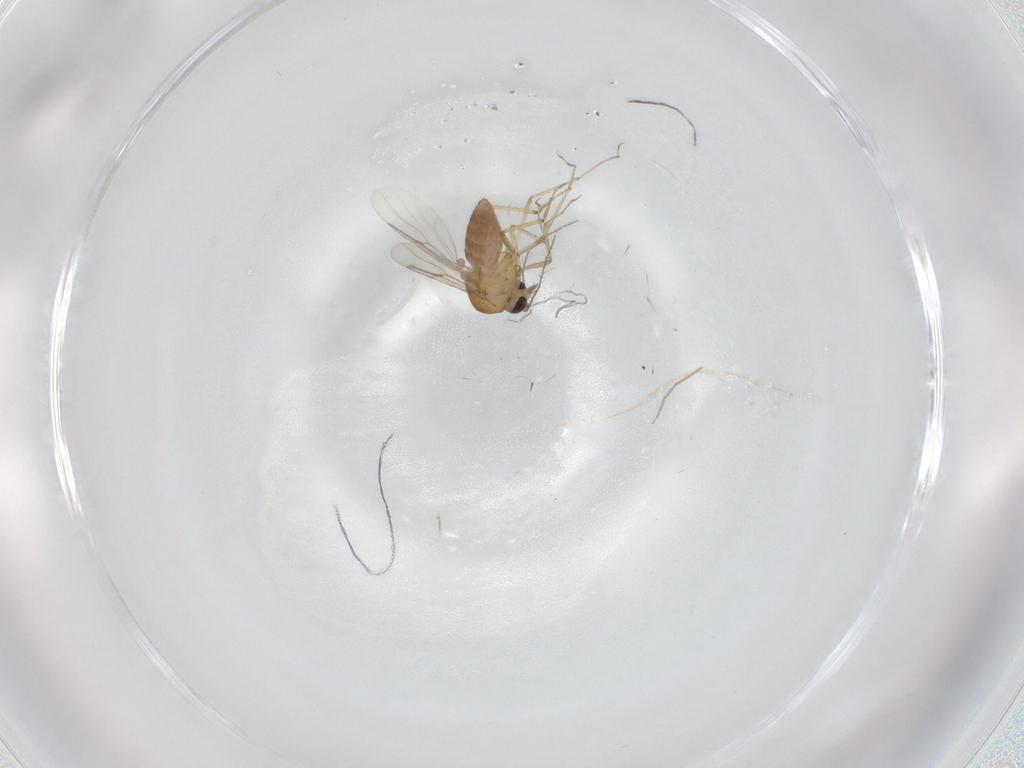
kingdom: Animalia
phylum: Arthropoda
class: Insecta
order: Diptera
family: Ceratopogonidae
